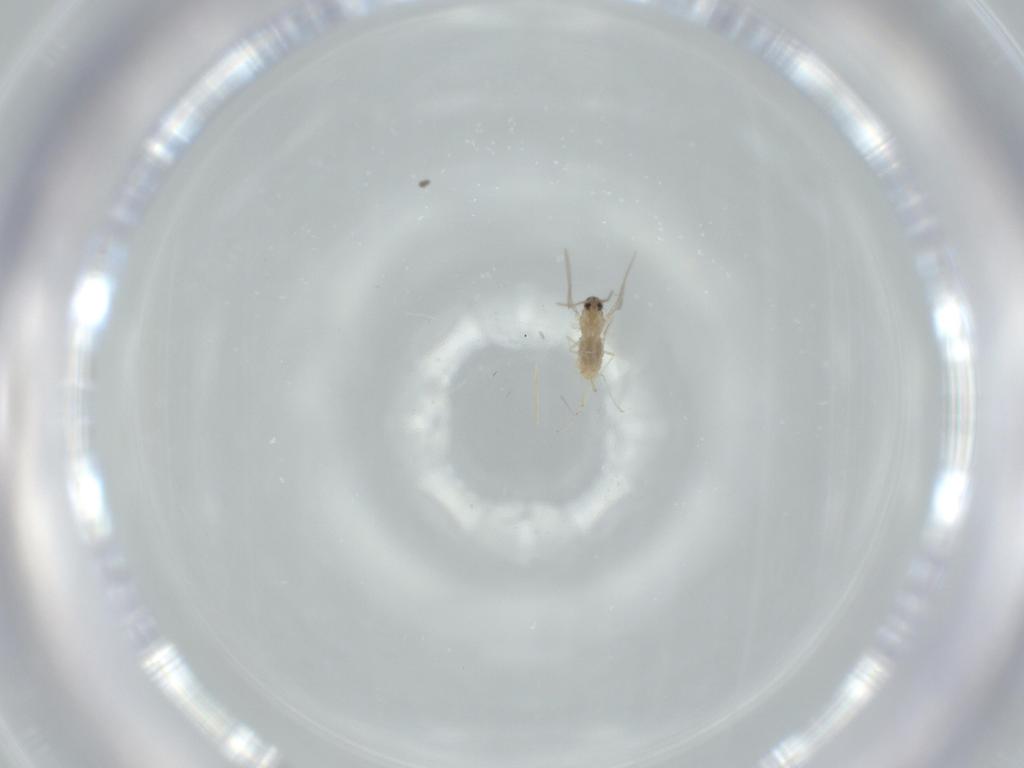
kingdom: Animalia
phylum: Arthropoda
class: Insecta
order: Diptera
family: Cecidomyiidae
